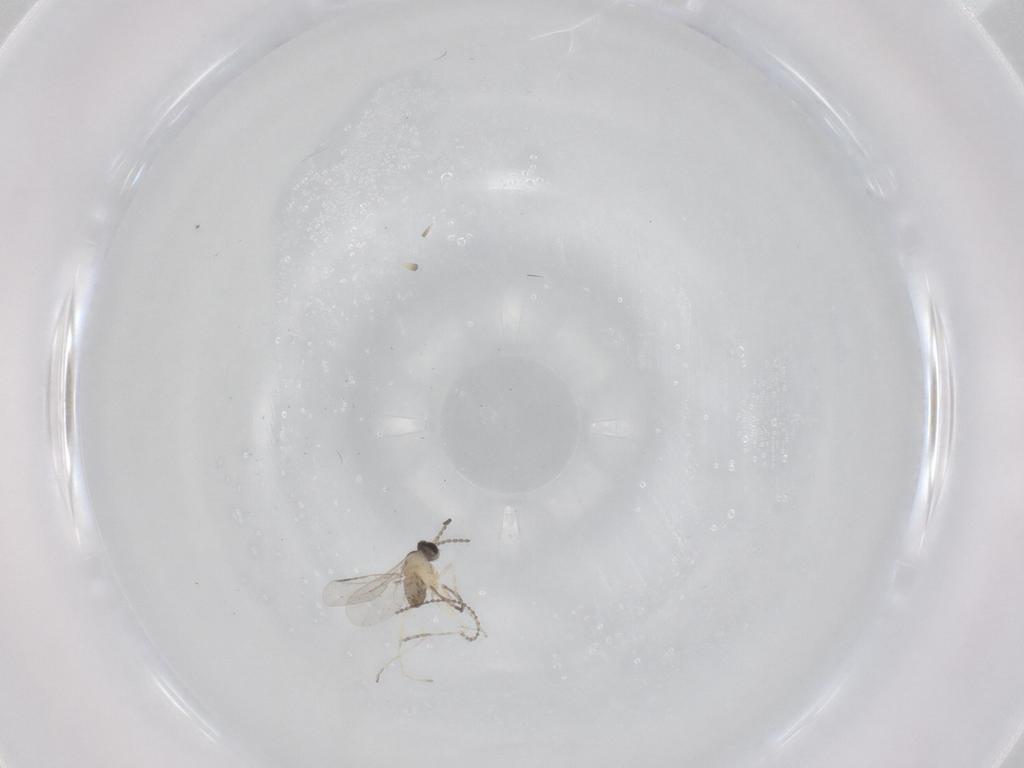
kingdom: Animalia
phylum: Arthropoda
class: Insecta
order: Diptera
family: Cecidomyiidae
